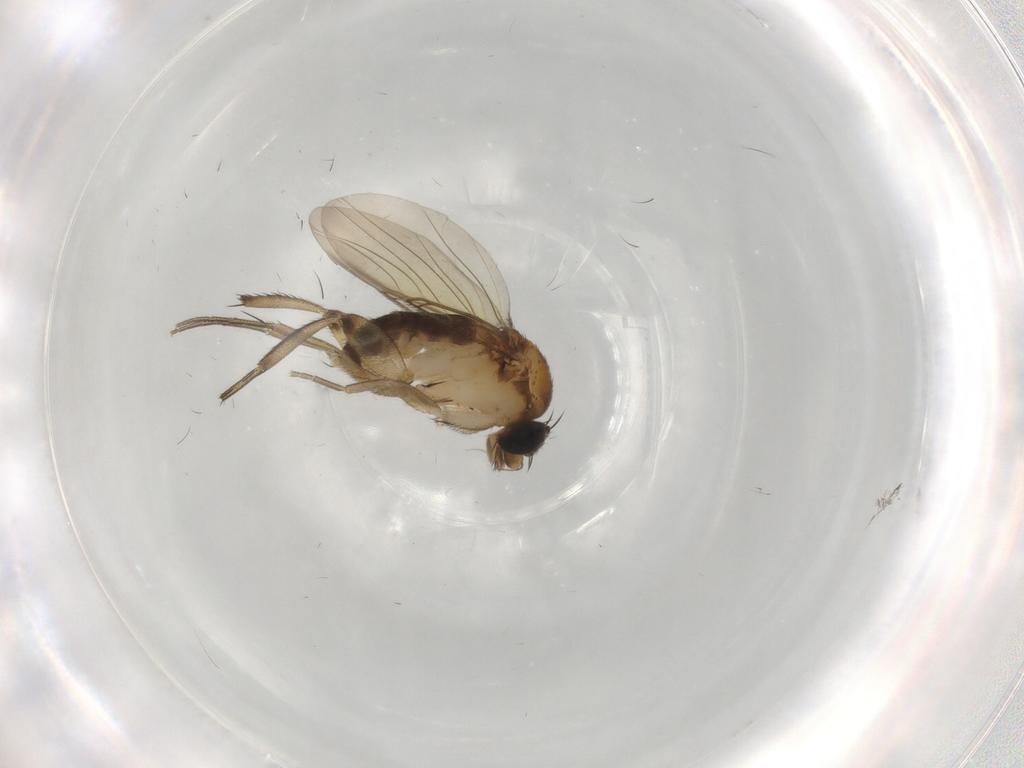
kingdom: Animalia
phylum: Arthropoda
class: Insecta
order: Diptera
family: Phoridae
